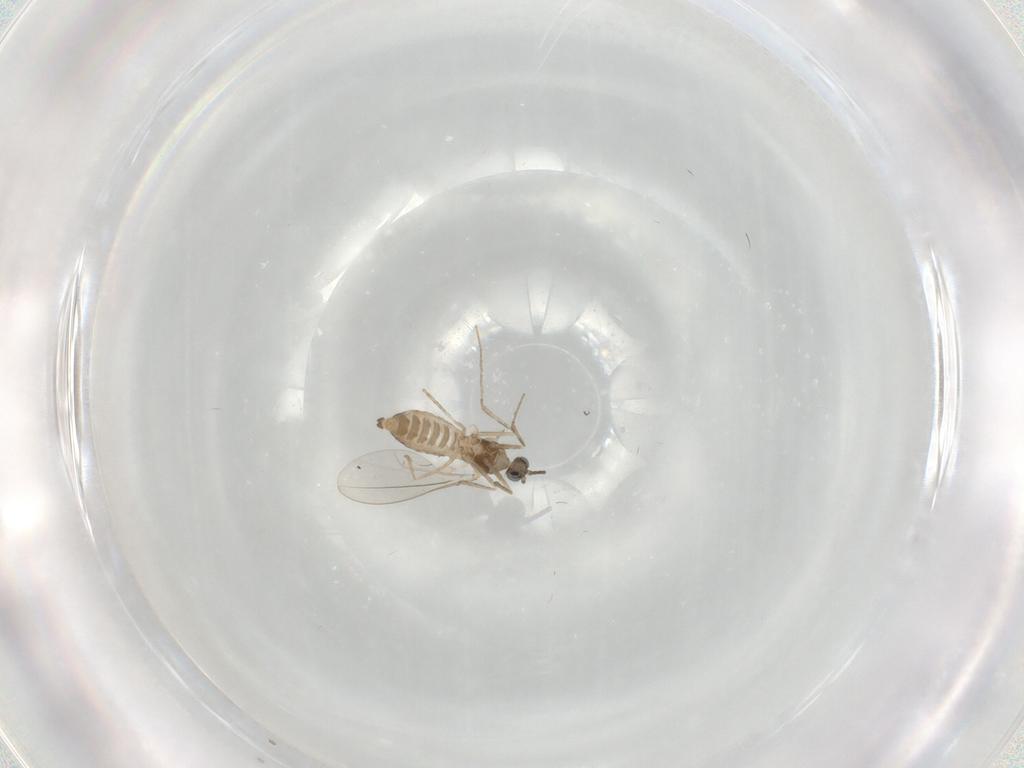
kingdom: Animalia
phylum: Arthropoda
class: Insecta
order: Diptera
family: Cecidomyiidae
